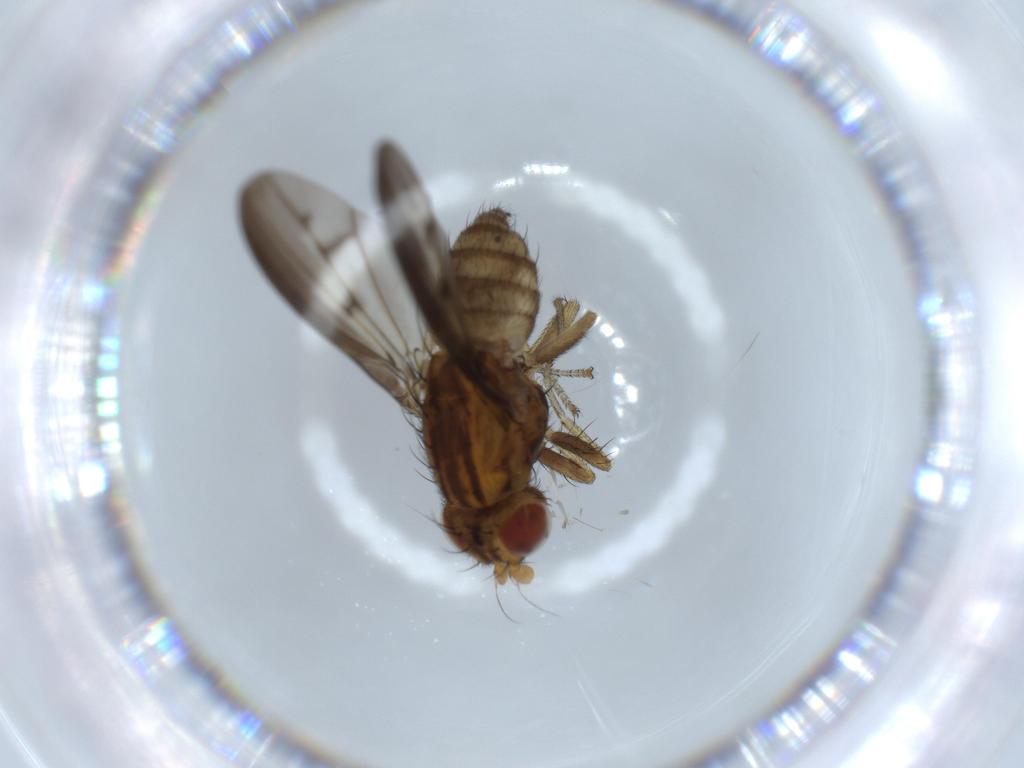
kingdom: Animalia
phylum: Arthropoda
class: Insecta
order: Diptera
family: Lauxaniidae
